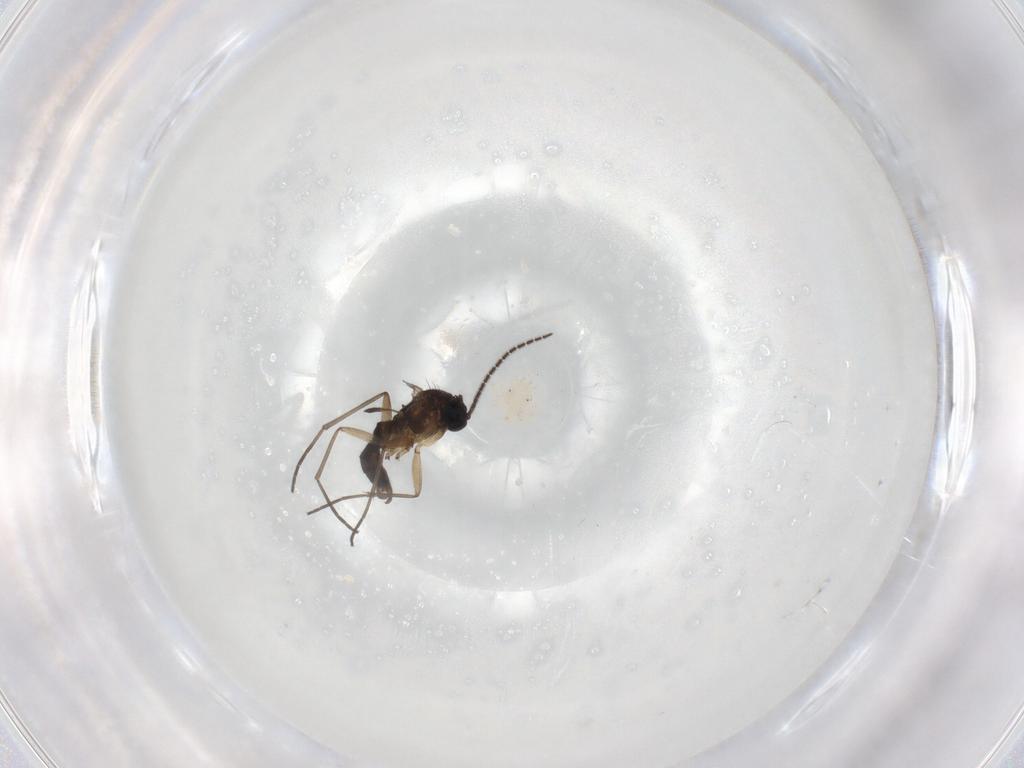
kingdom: Animalia
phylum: Arthropoda
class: Insecta
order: Diptera
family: Sciaridae
